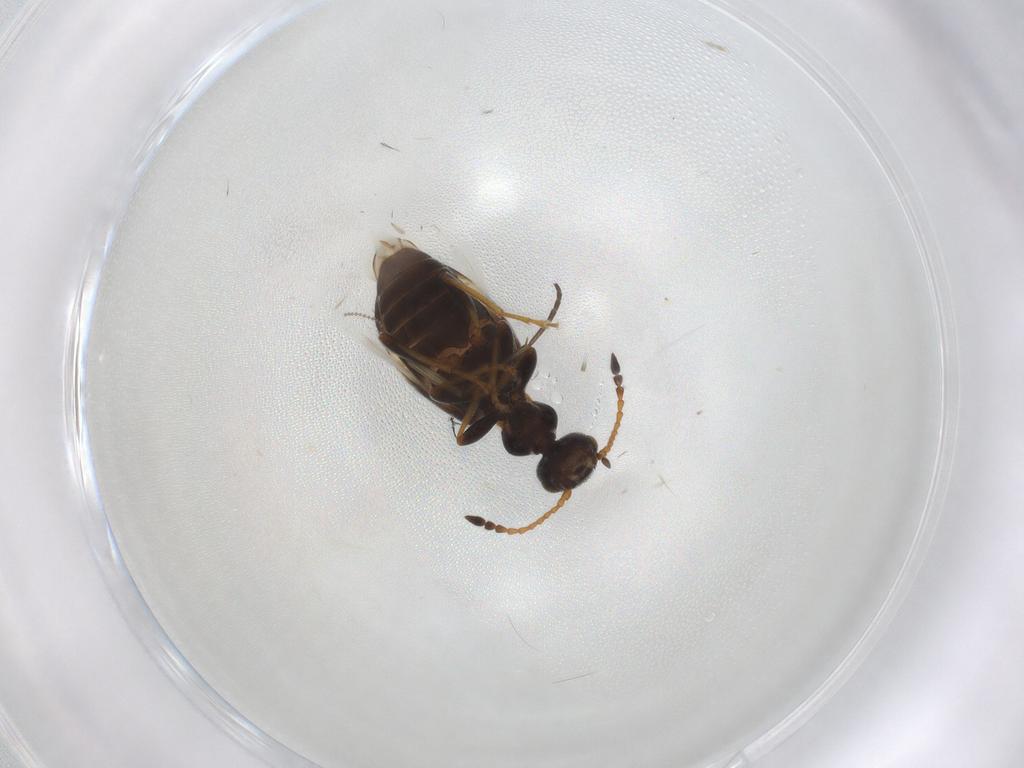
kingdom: Animalia
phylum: Arthropoda
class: Insecta
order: Coleoptera
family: Anthicidae
